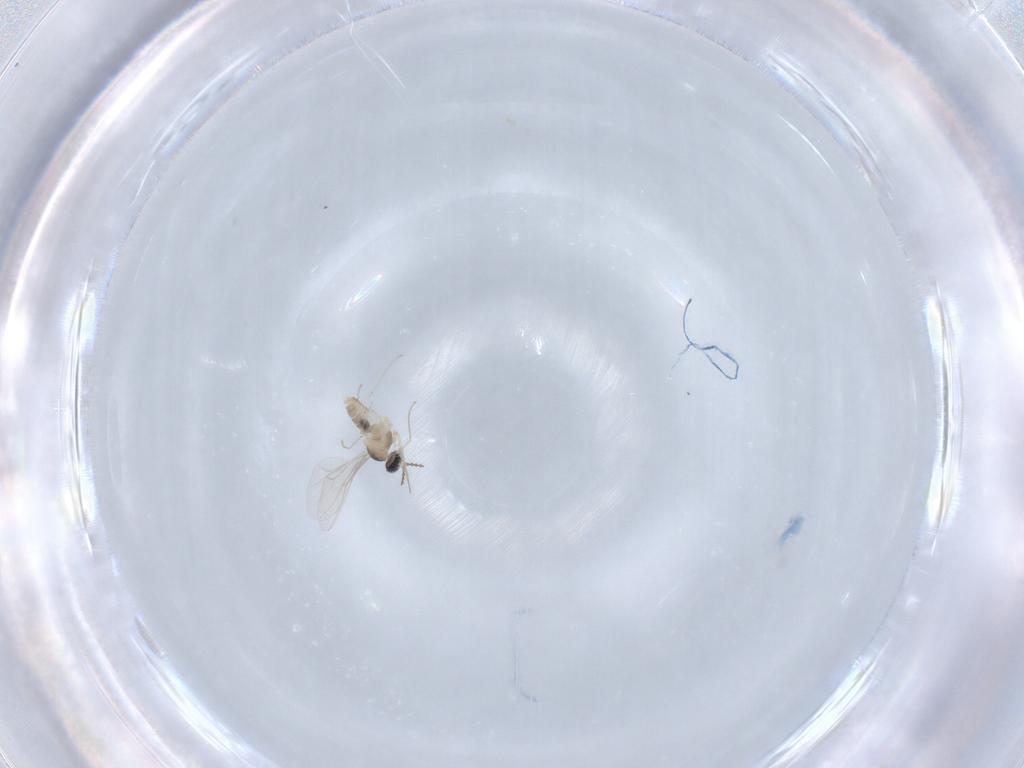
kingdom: Animalia
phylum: Arthropoda
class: Insecta
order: Diptera
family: Cecidomyiidae
